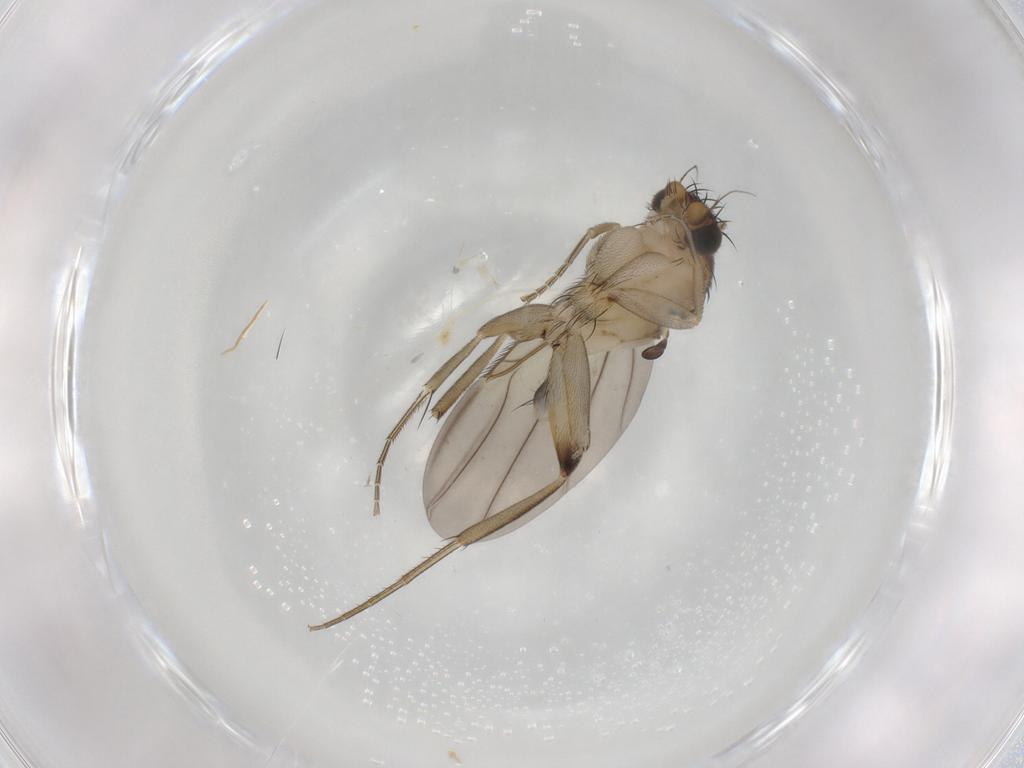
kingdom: Animalia
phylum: Arthropoda
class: Insecta
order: Diptera
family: Phoridae
